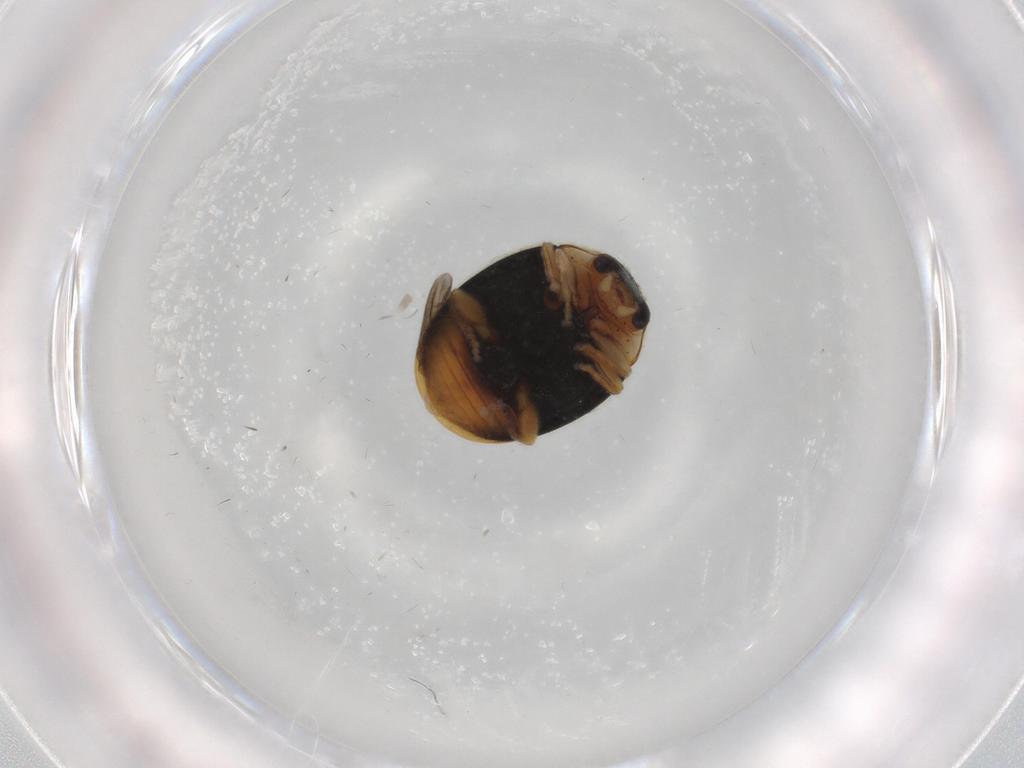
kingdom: Animalia
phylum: Arthropoda
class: Insecta
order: Coleoptera
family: Coccinellidae
